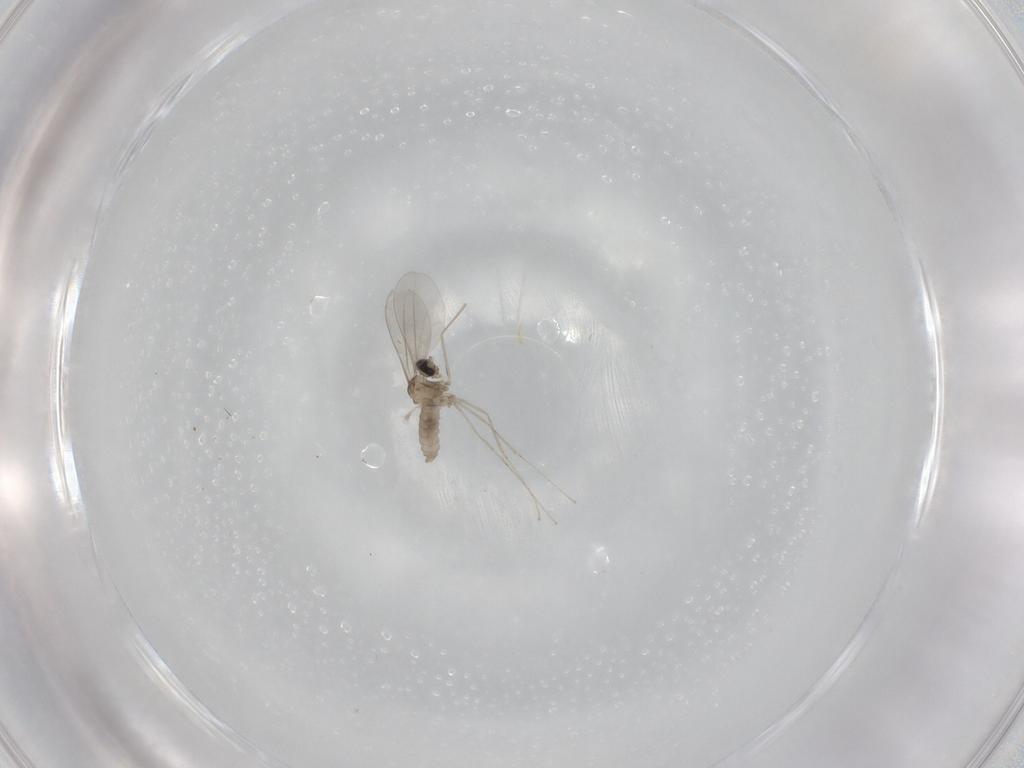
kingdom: Animalia
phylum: Arthropoda
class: Insecta
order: Diptera
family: Cecidomyiidae
